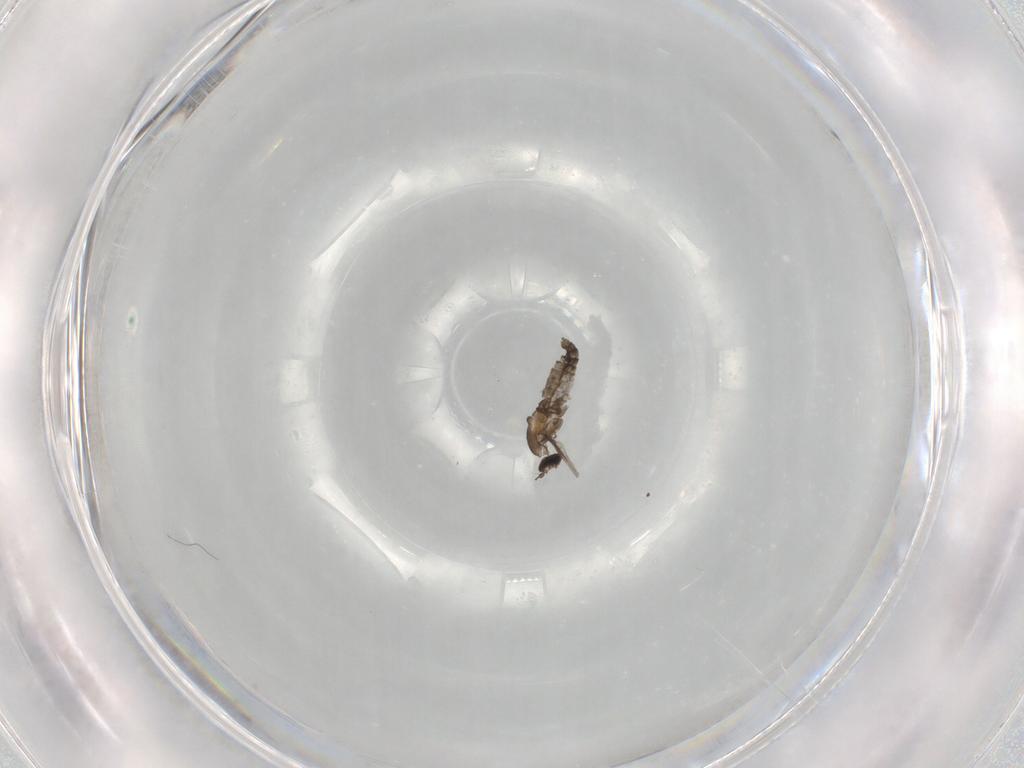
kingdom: Animalia
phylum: Arthropoda
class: Insecta
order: Diptera
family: Cecidomyiidae
